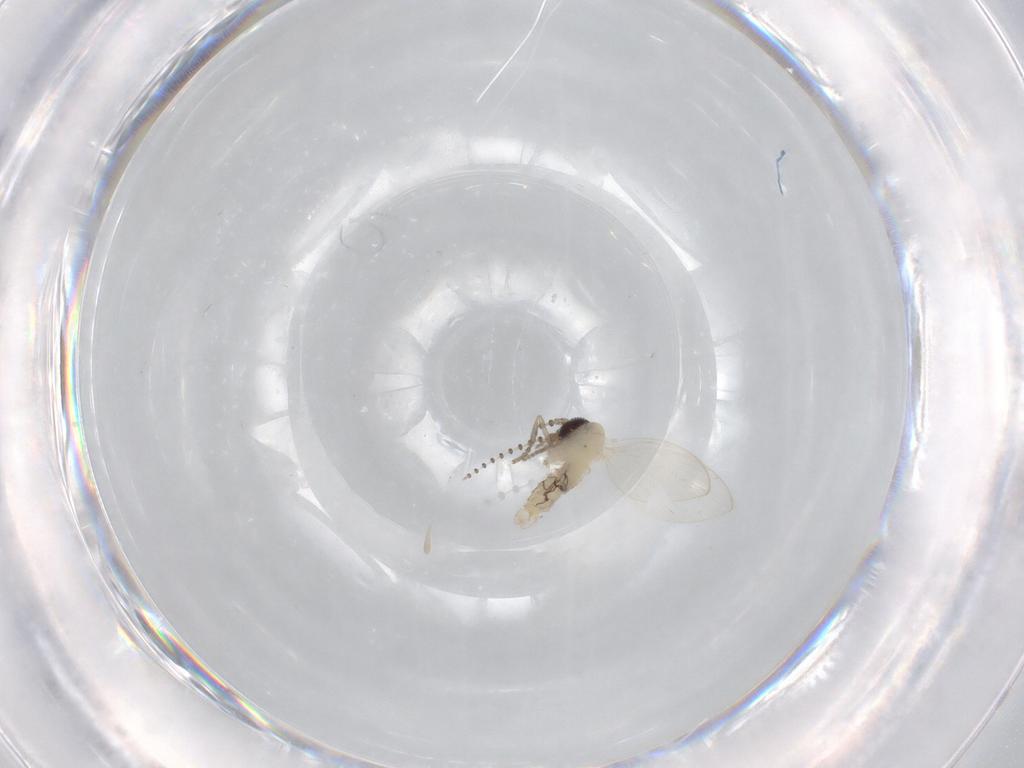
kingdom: Animalia
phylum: Arthropoda
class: Insecta
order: Diptera
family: Psychodidae
